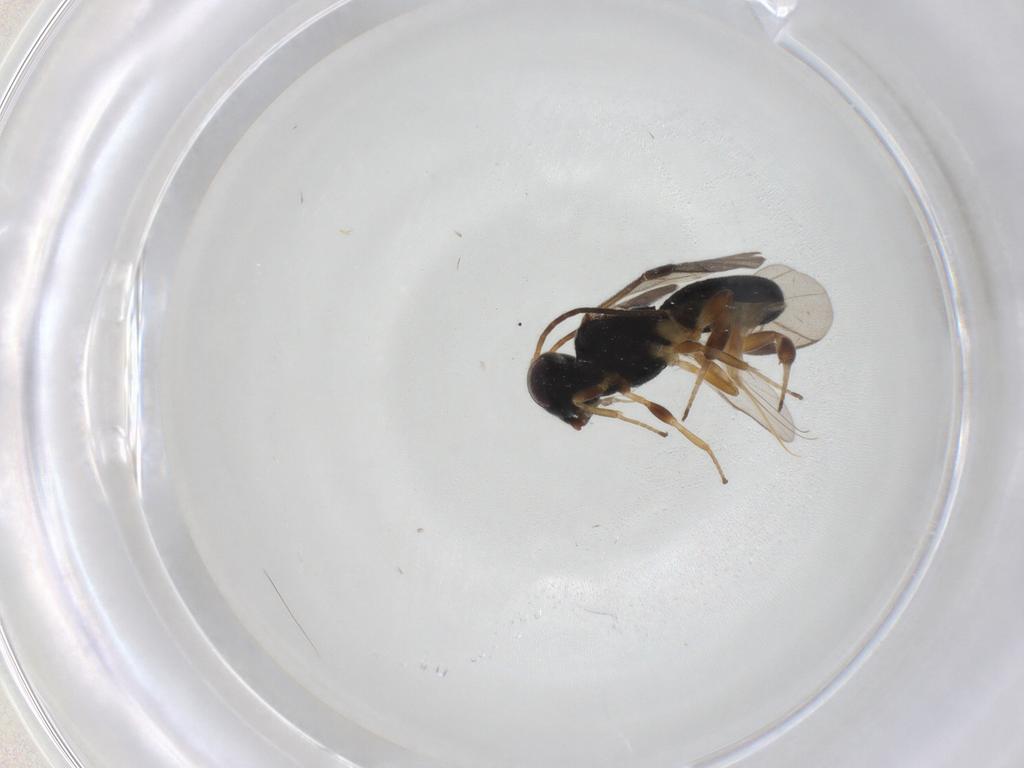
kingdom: Animalia
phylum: Arthropoda
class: Insecta
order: Hymenoptera
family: Braconidae
